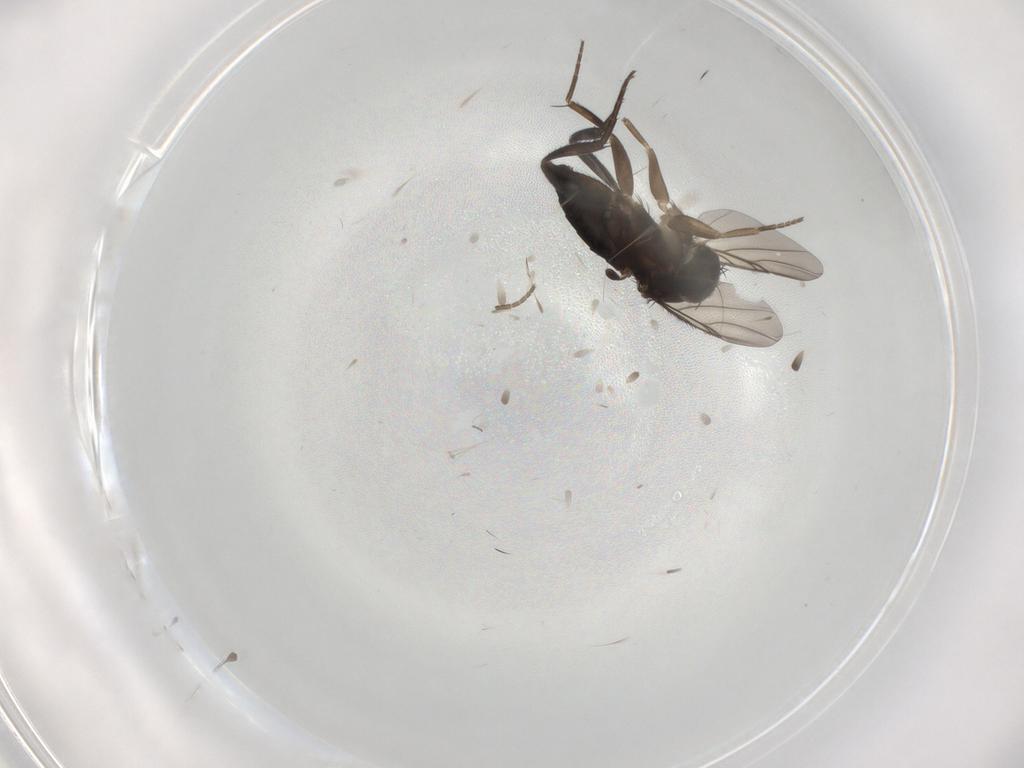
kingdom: Animalia
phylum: Arthropoda
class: Insecta
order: Diptera
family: Phoridae
